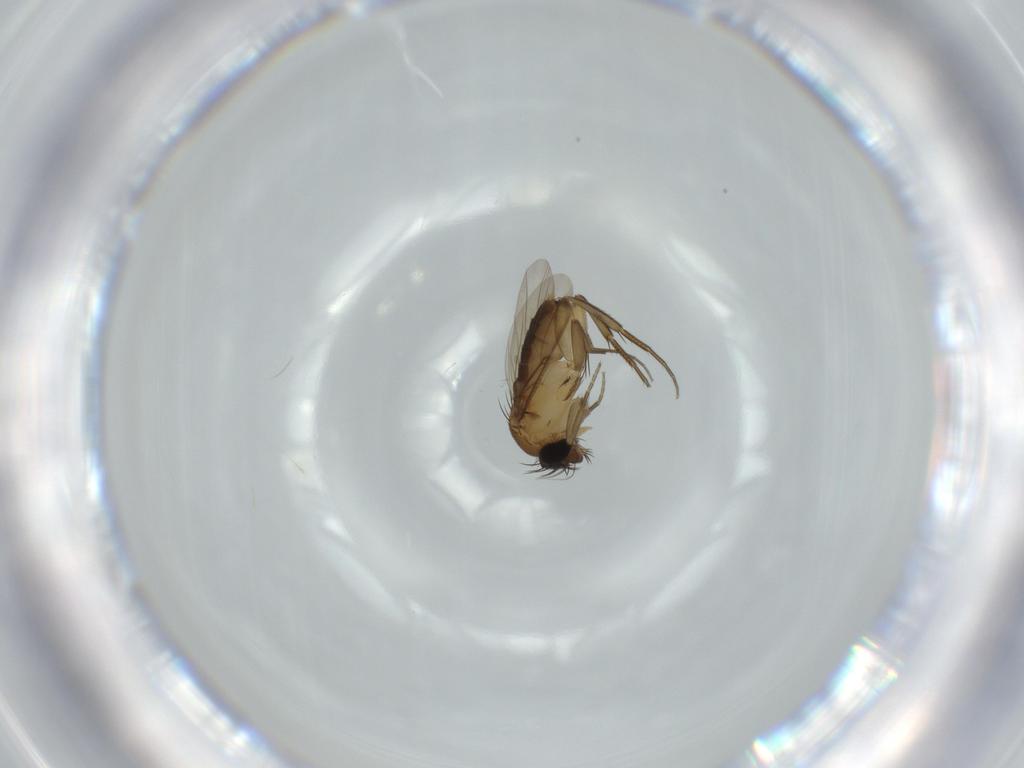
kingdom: Animalia
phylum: Arthropoda
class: Insecta
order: Diptera
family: Phoridae
